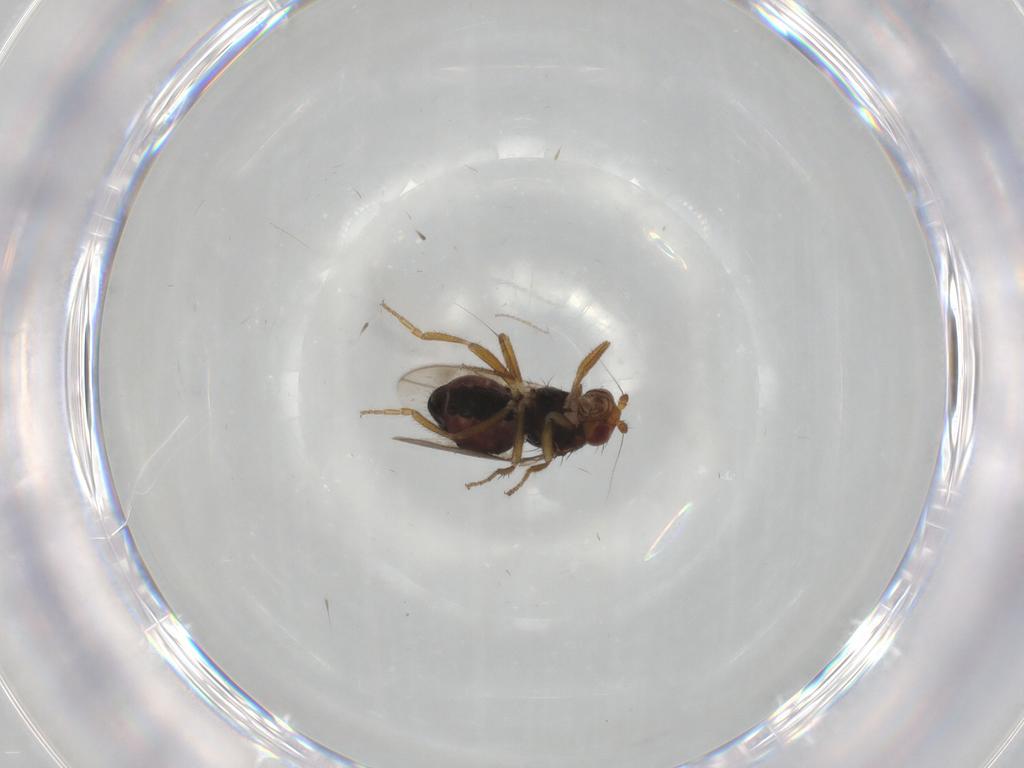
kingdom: Animalia
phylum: Arthropoda
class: Insecta
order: Diptera
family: Sphaeroceridae
